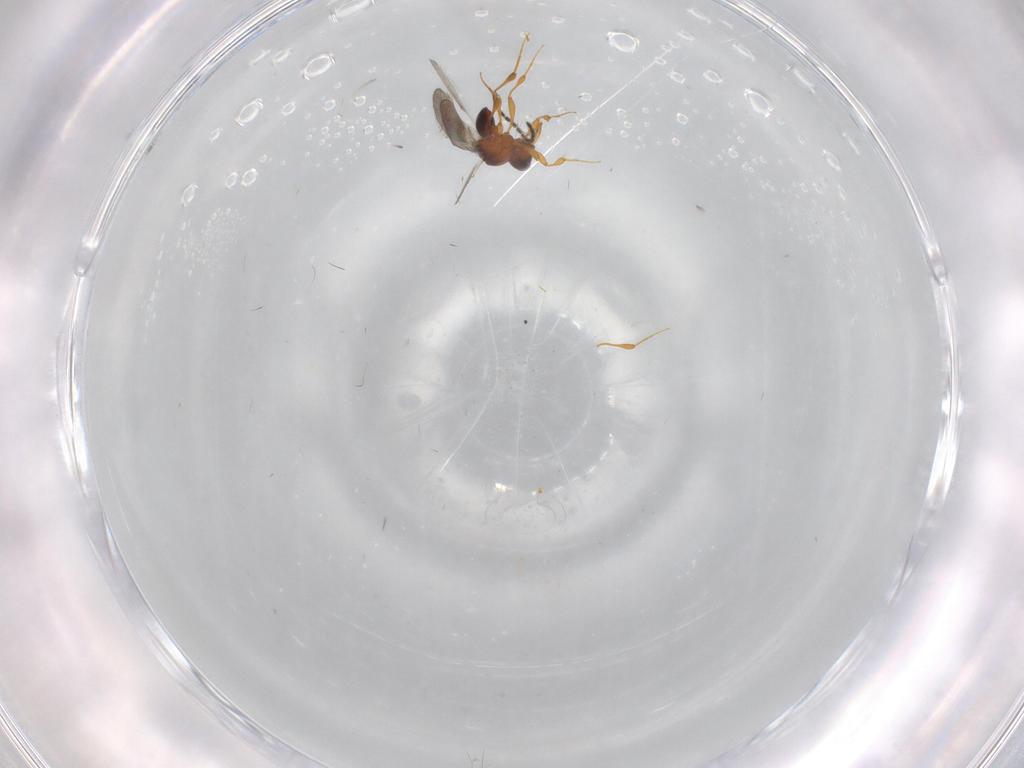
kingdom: Animalia
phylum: Arthropoda
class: Insecta
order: Hymenoptera
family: Platygastridae
